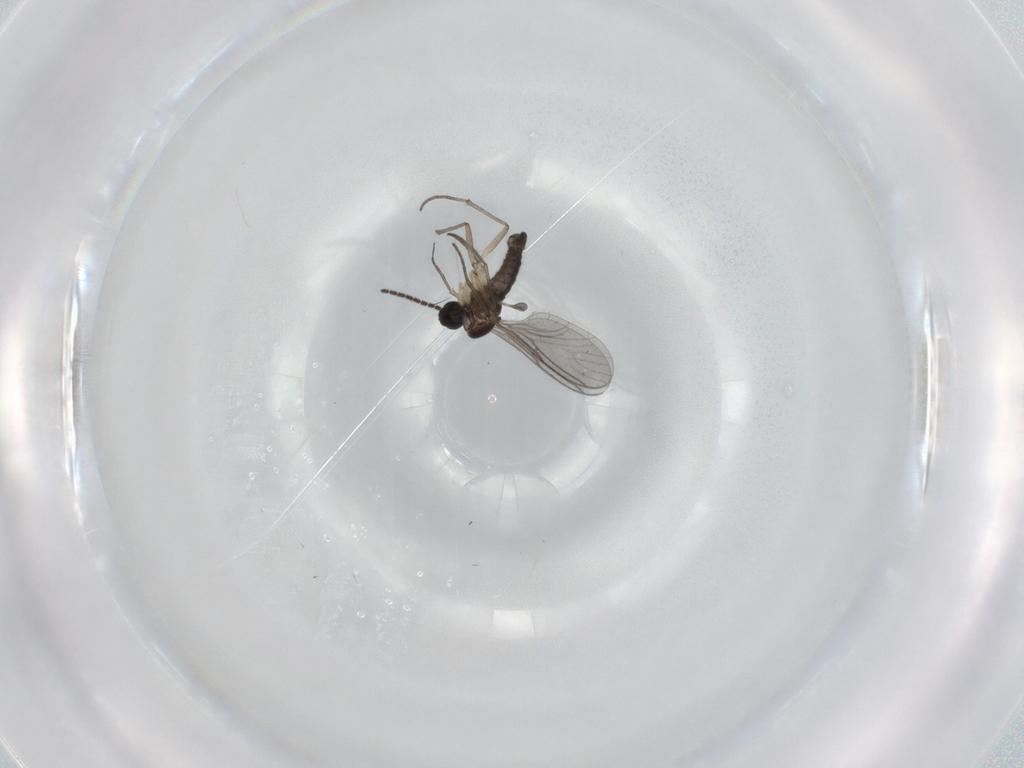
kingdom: Animalia
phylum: Arthropoda
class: Insecta
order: Diptera
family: Sciaridae
